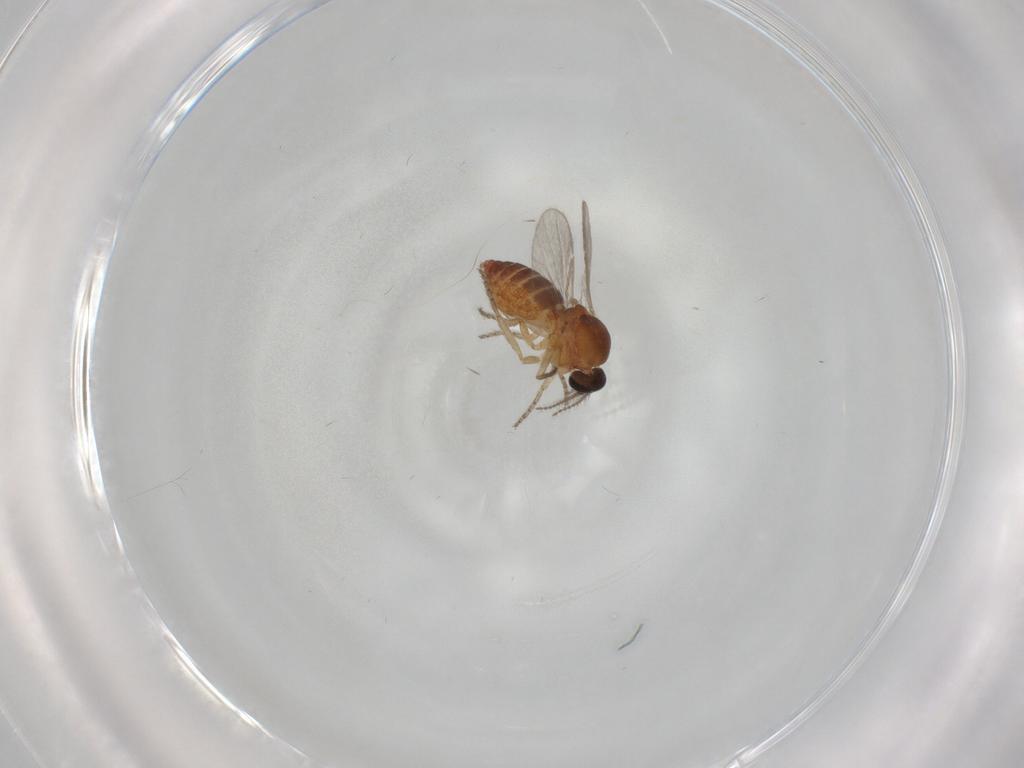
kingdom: Animalia
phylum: Arthropoda
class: Insecta
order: Diptera
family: Ceratopogonidae
